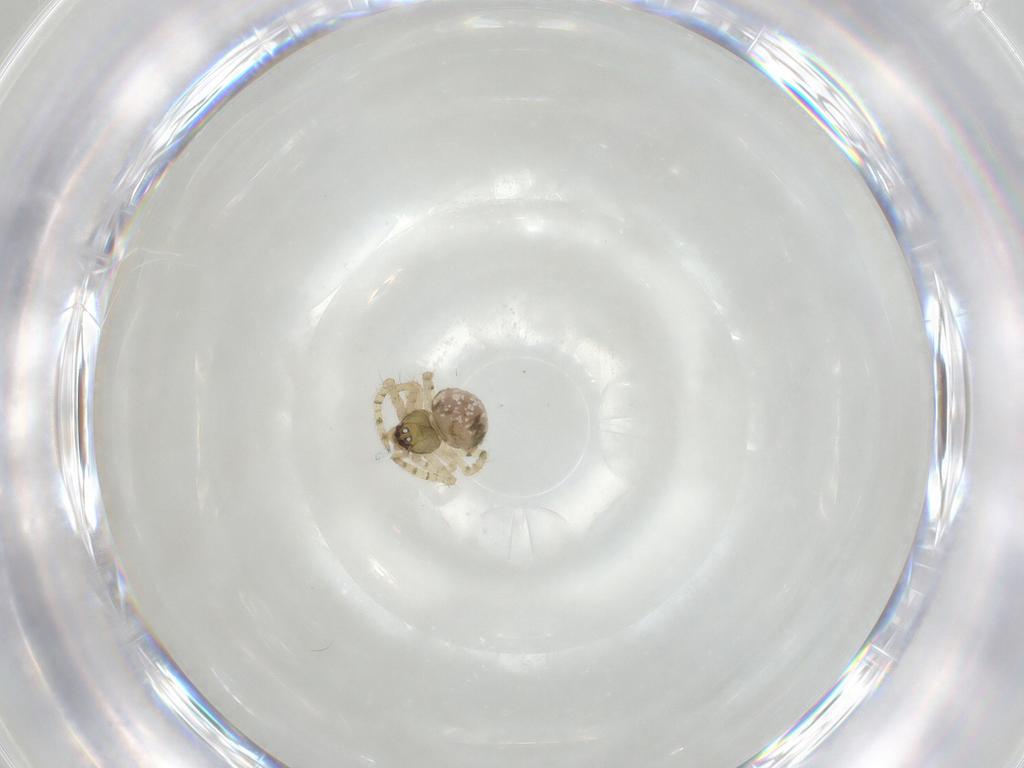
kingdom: Animalia
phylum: Arthropoda
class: Arachnida
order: Araneae
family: Theridiidae
